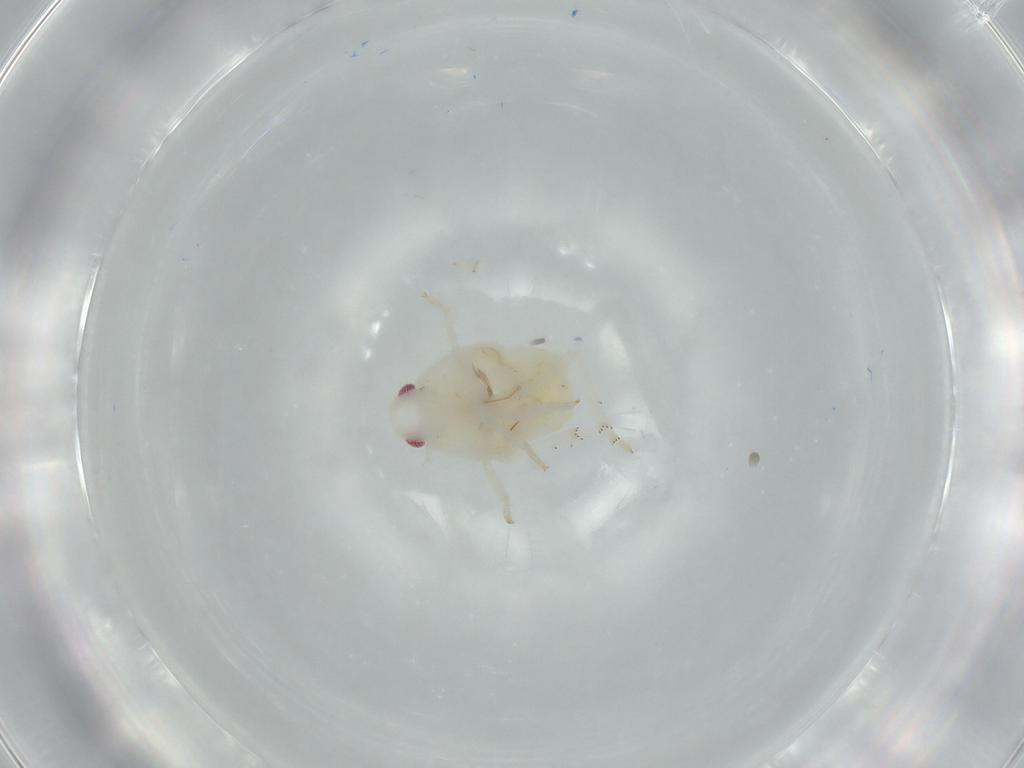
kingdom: Animalia
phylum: Arthropoda
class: Insecta
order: Hemiptera
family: Flatidae
